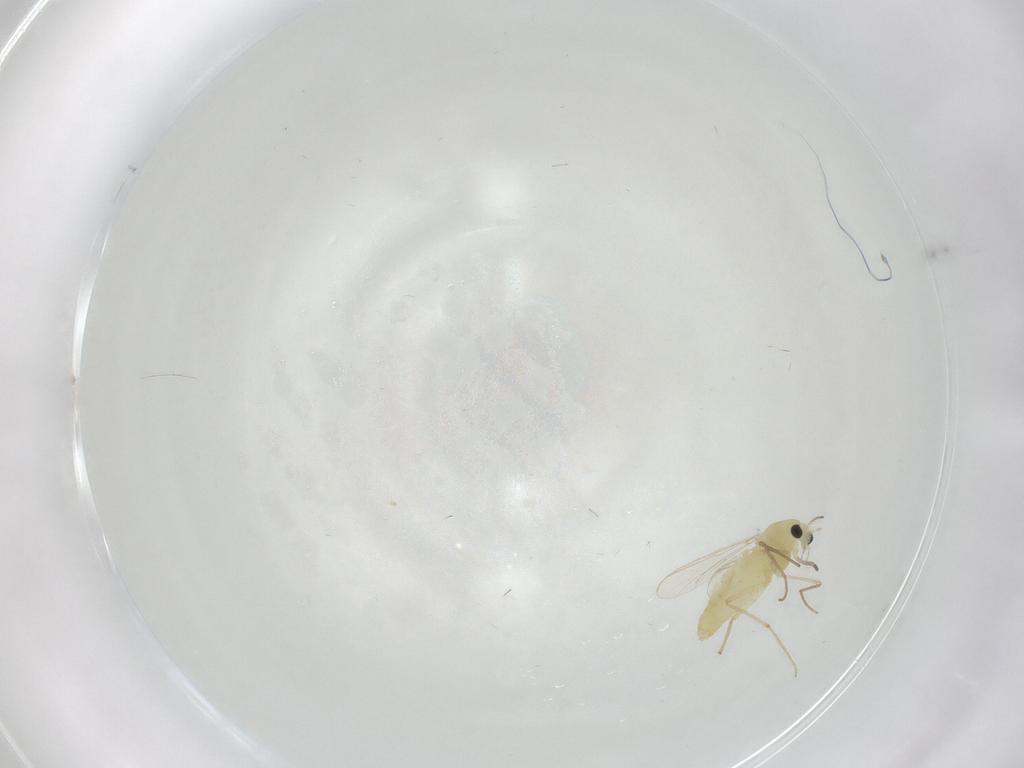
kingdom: Animalia
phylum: Arthropoda
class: Insecta
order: Diptera
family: Chironomidae
